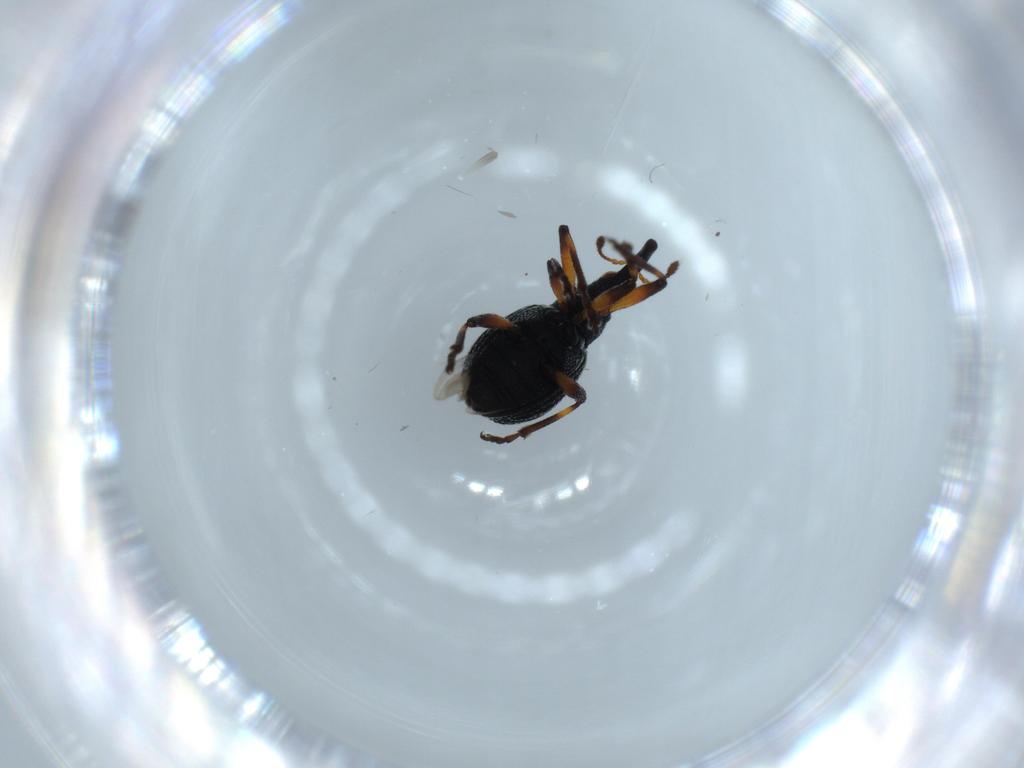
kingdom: Animalia
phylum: Arthropoda
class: Insecta
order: Coleoptera
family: Brentidae
